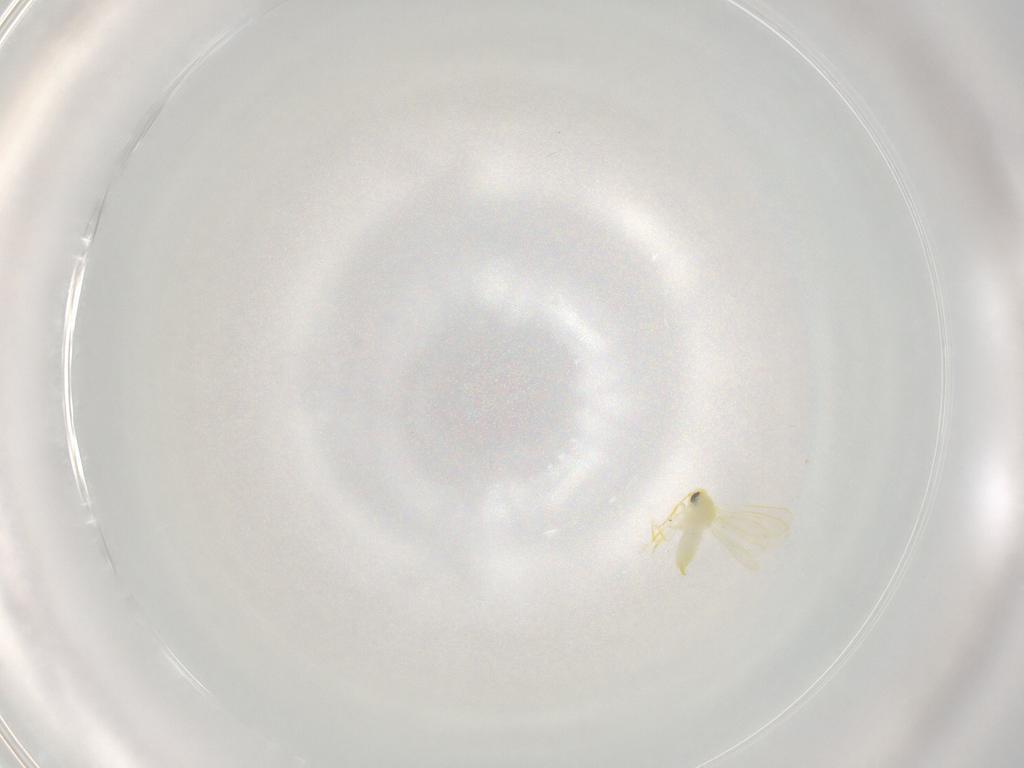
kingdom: Animalia
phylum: Arthropoda
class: Insecta
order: Hemiptera
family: Aleyrodidae
